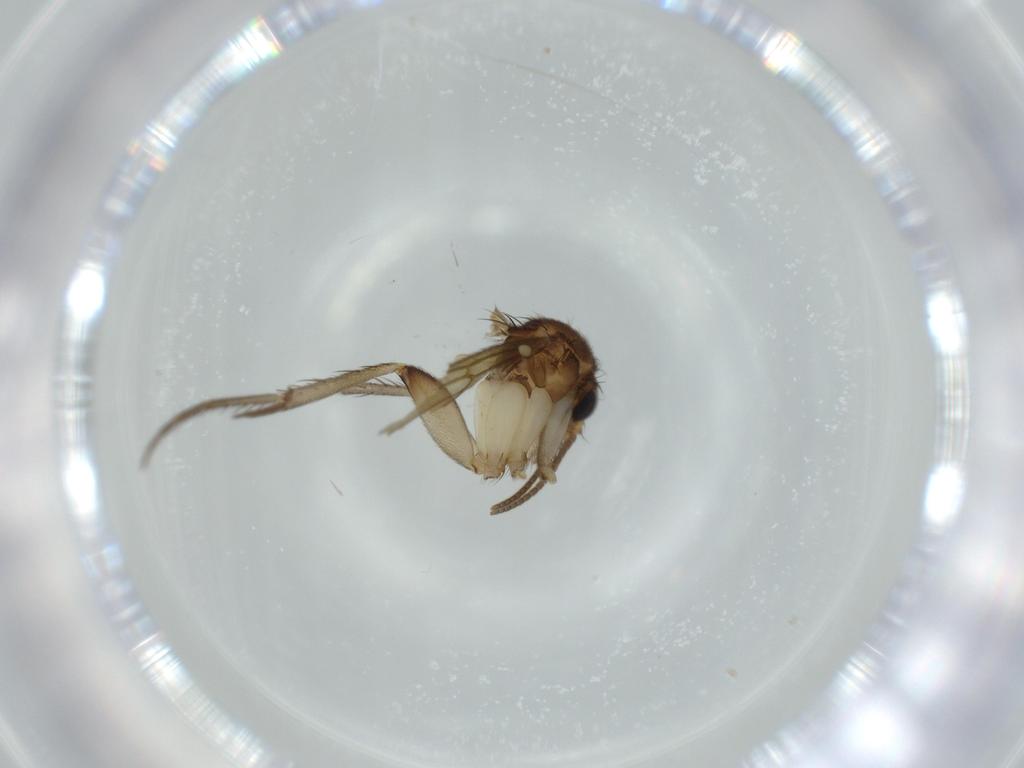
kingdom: Animalia
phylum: Arthropoda
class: Insecta
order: Diptera
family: Mycetophilidae
